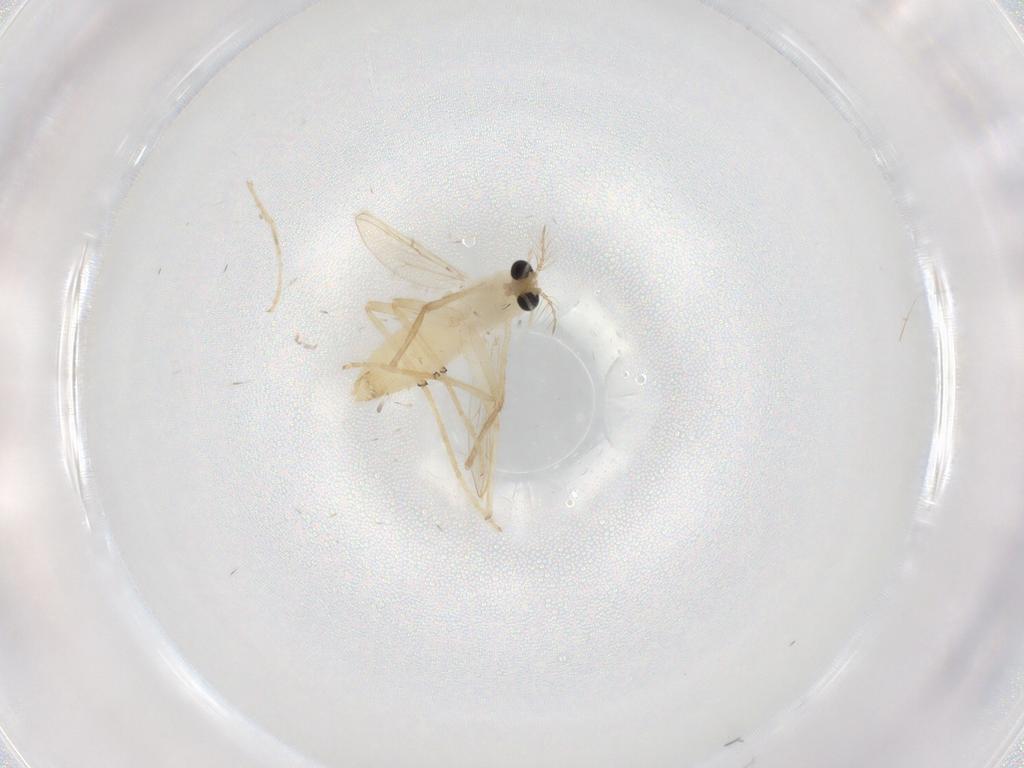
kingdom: Animalia
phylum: Arthropoda
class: Insecta
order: Diptera
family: Chironomidae
